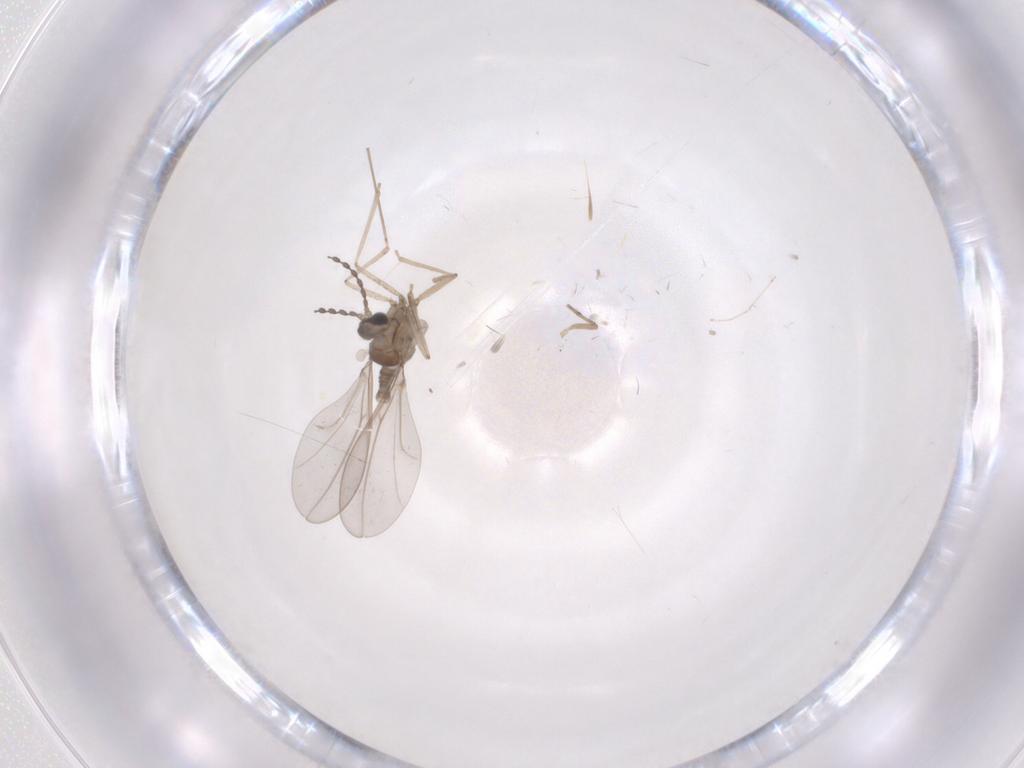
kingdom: Animalia
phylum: Arthropoda
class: Insecta
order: Diptera
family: Cecidomyiidae
